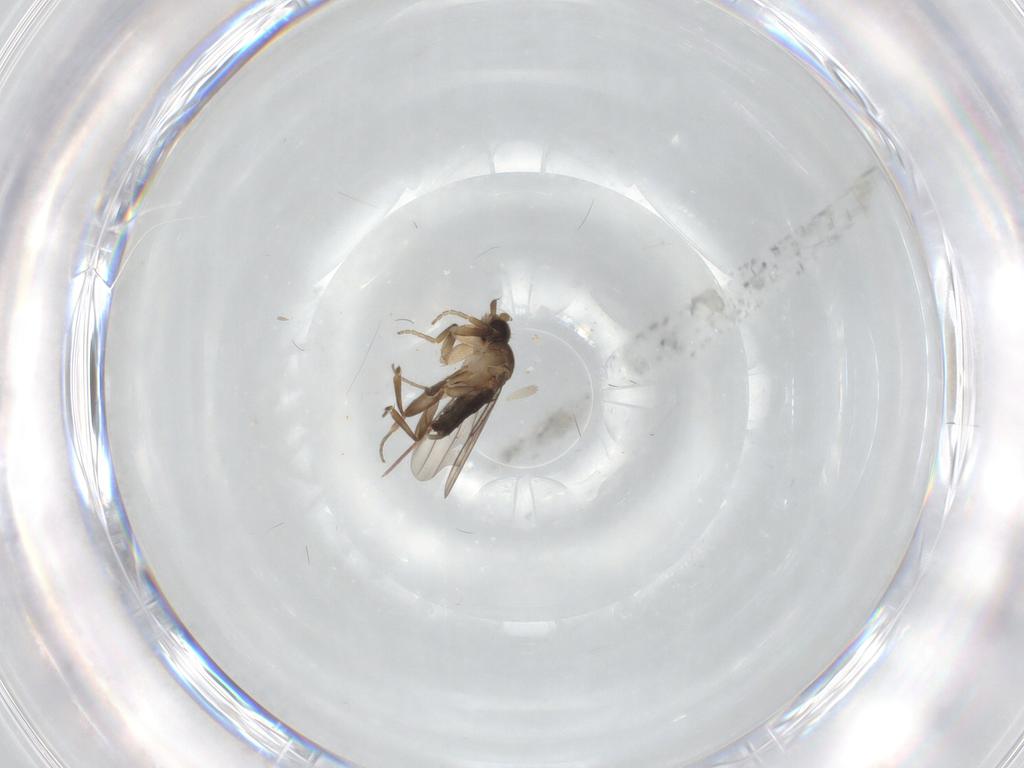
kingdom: Animalia
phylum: Arthropoda
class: Insecta
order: Diptera
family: Phoridae
